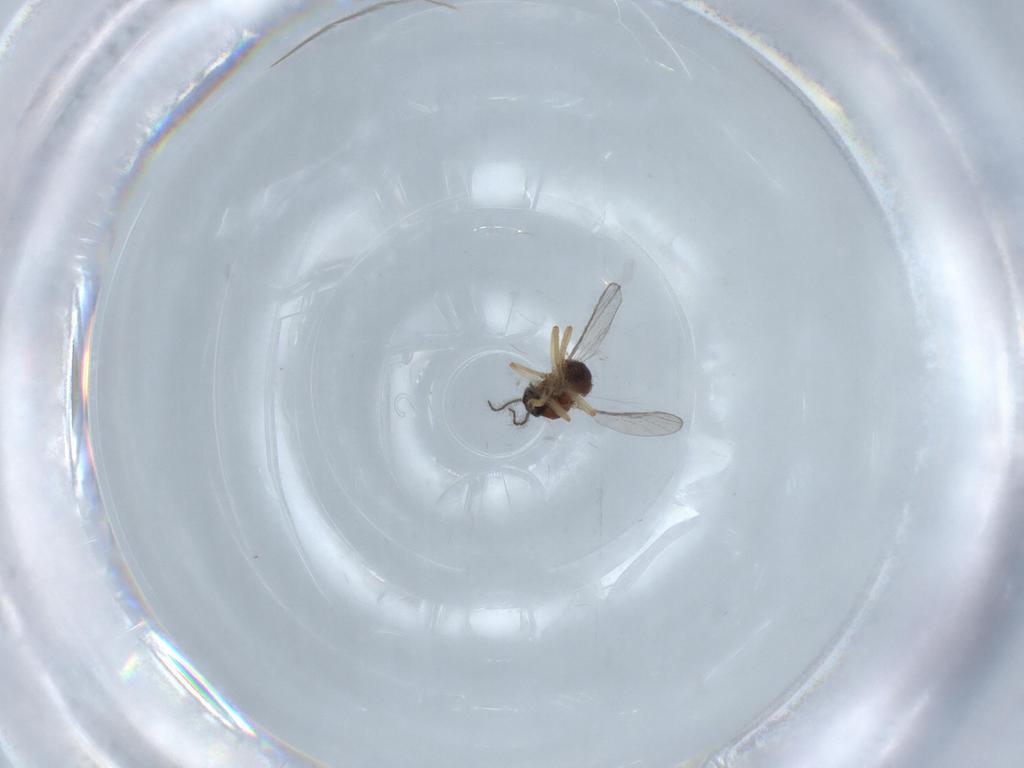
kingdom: Animalia
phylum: Arthropoda
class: Insecta
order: Diptera
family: Ceratopogonidae
